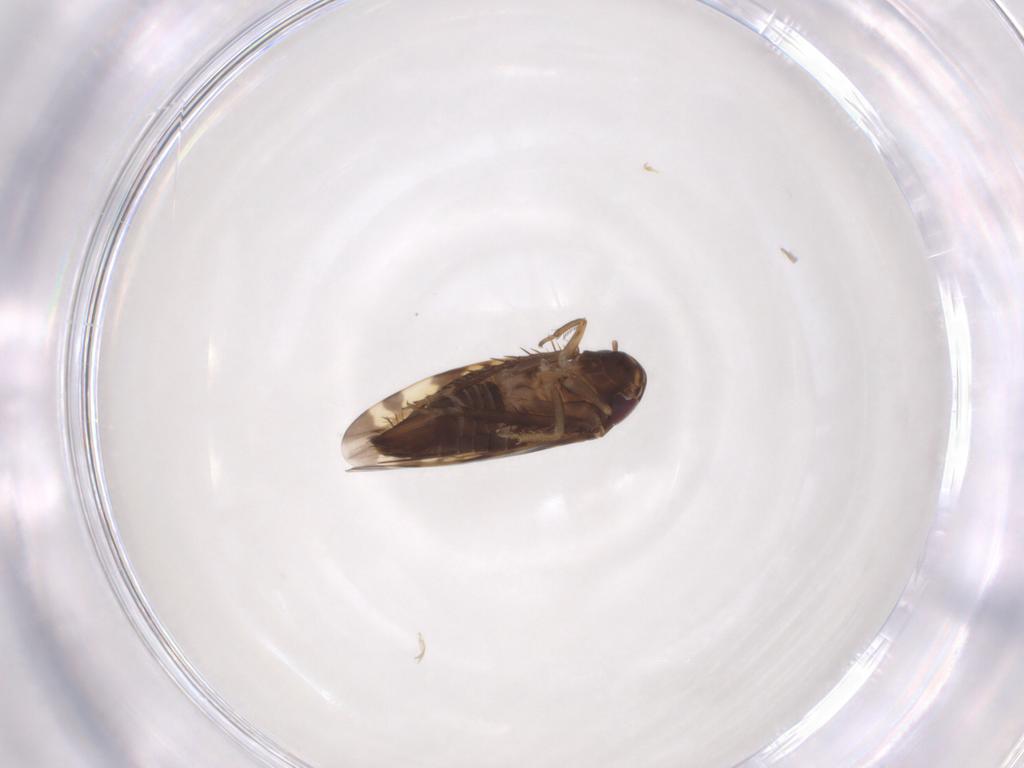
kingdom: Animalia
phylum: Arthropoda
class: Insecta
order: Hemiptera
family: Cicadellidae
